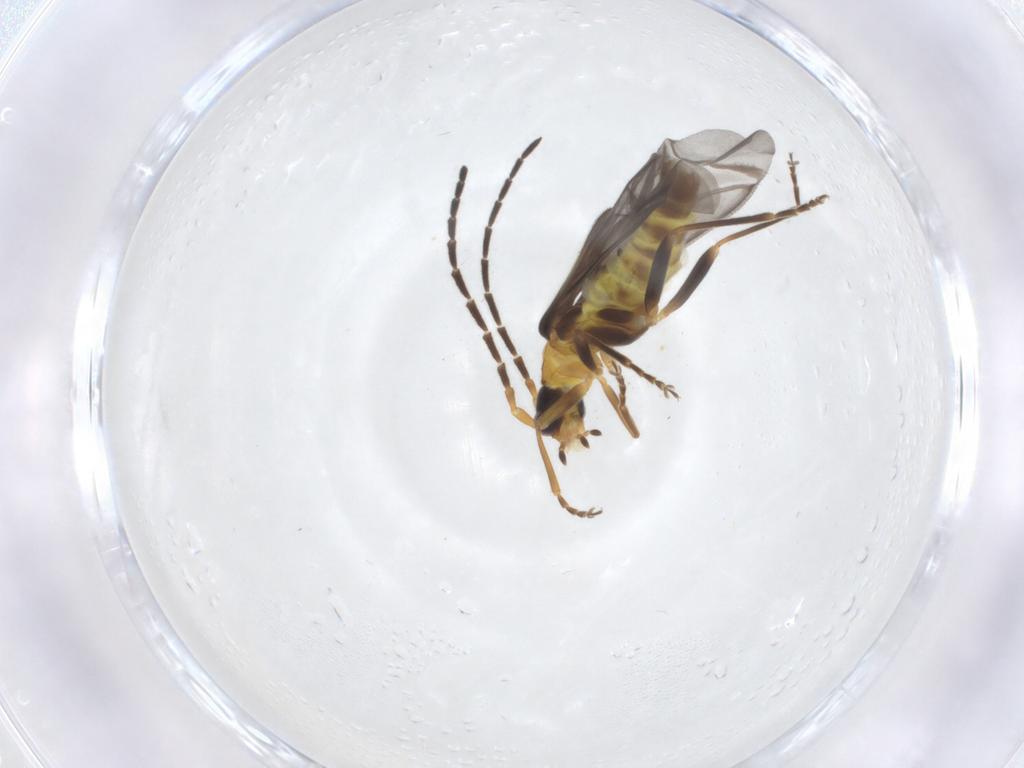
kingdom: Animalia
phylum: Arthropoda
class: Insecta
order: Coleoptera
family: Cantharidae
